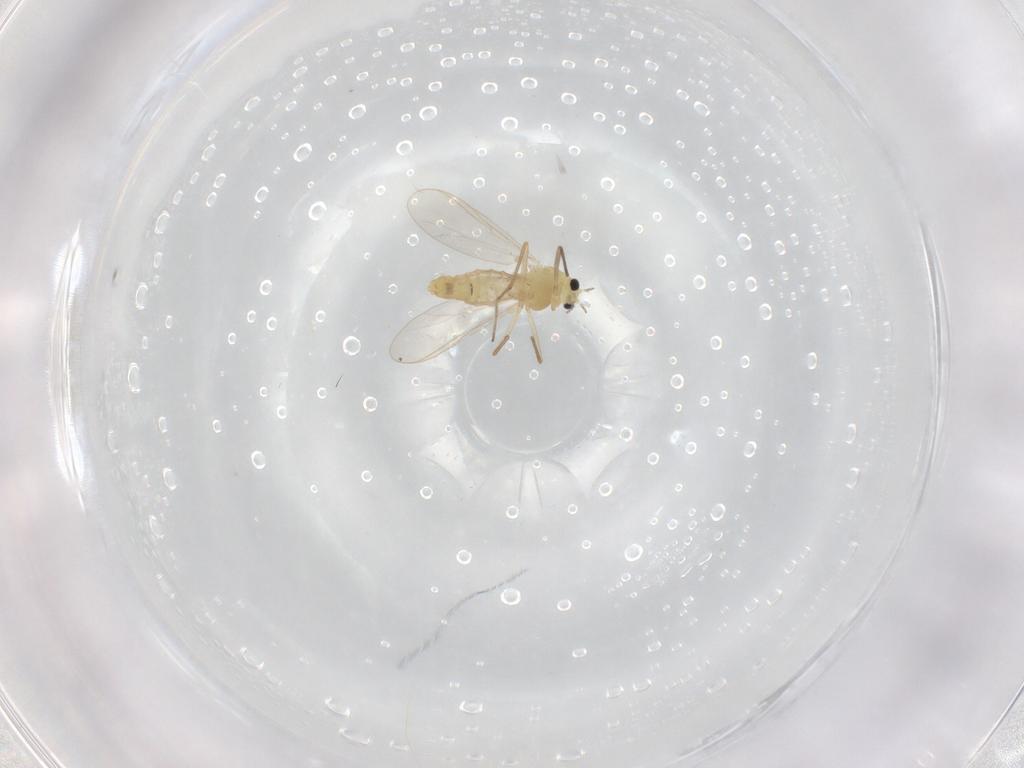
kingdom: Animalia
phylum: Arthropoda
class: Insecta
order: Diptera
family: Chironomidae
